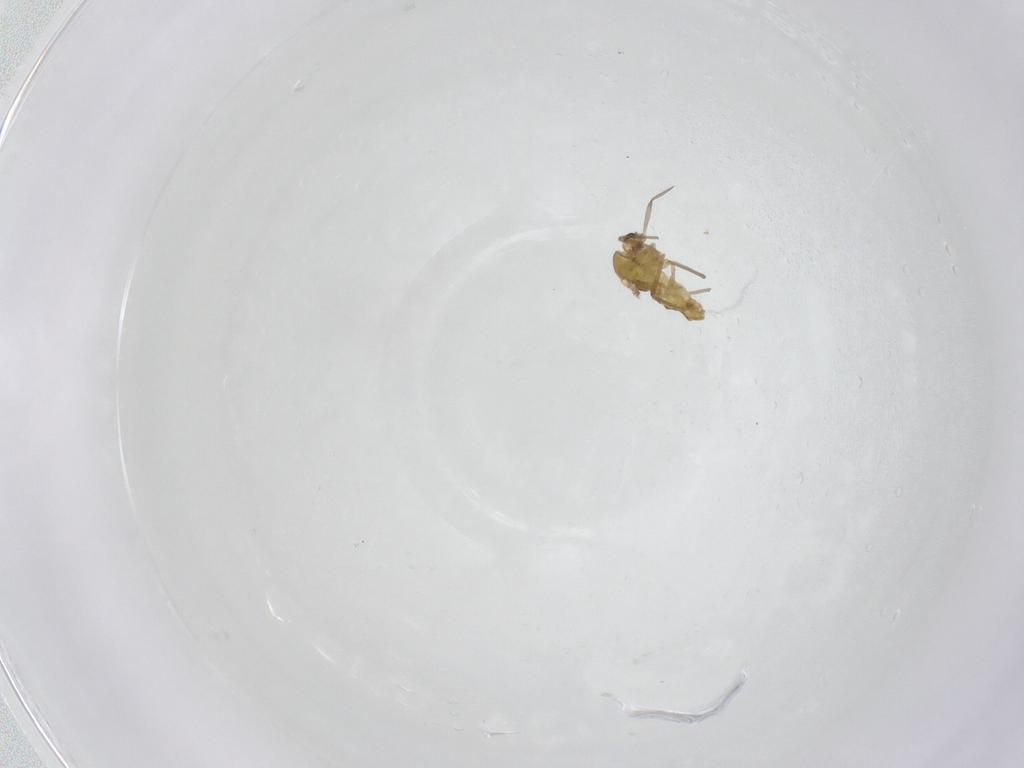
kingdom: Animalia
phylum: Arthropoda
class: Insecta
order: Diptera
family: Chironomidae
